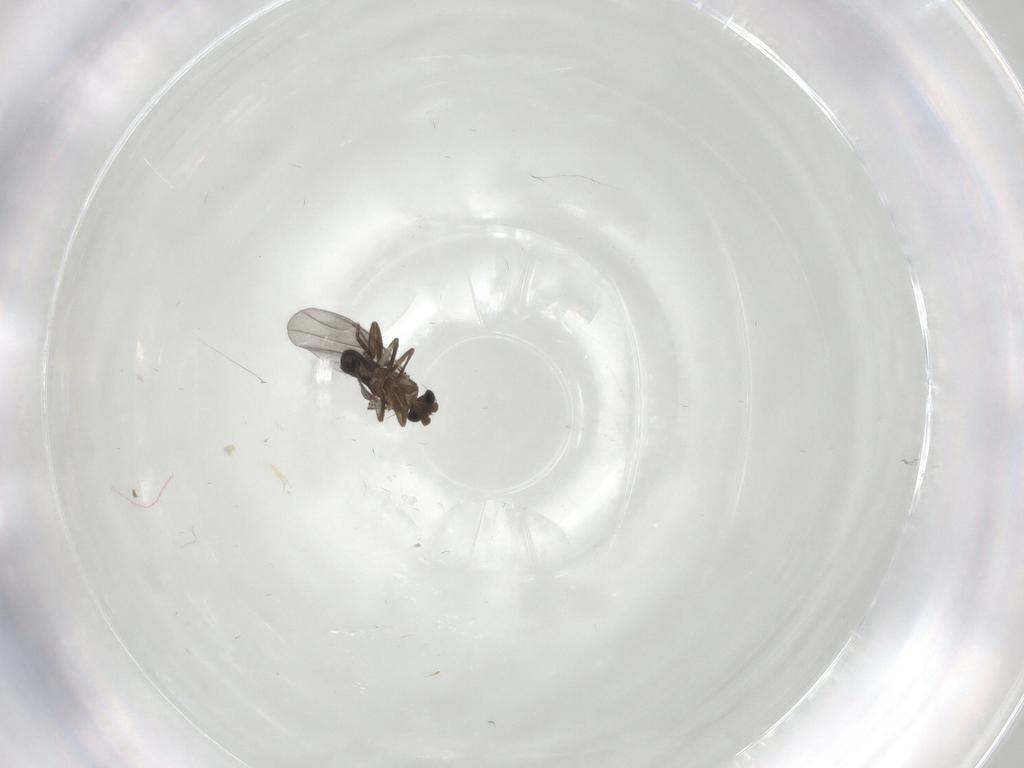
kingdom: Animalia
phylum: Arthropoda
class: Insecta
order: Diptera
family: Phoridae
